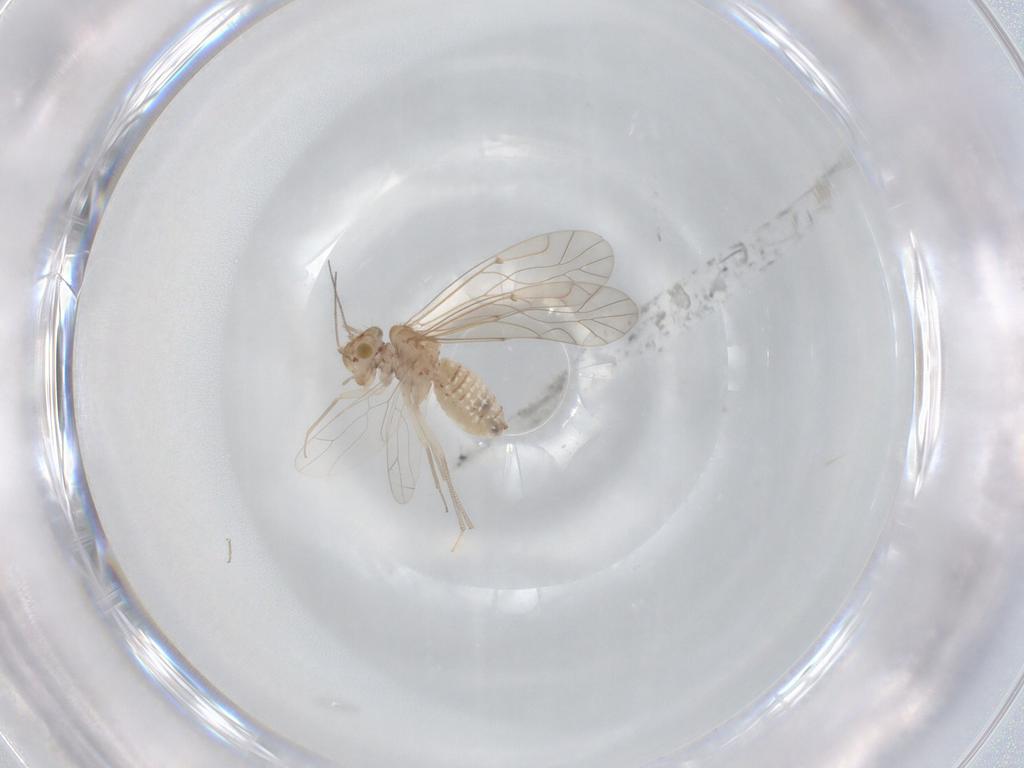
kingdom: Animalia
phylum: Arthropoda
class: Insecta
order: Psocodea
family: Lachesillidae
